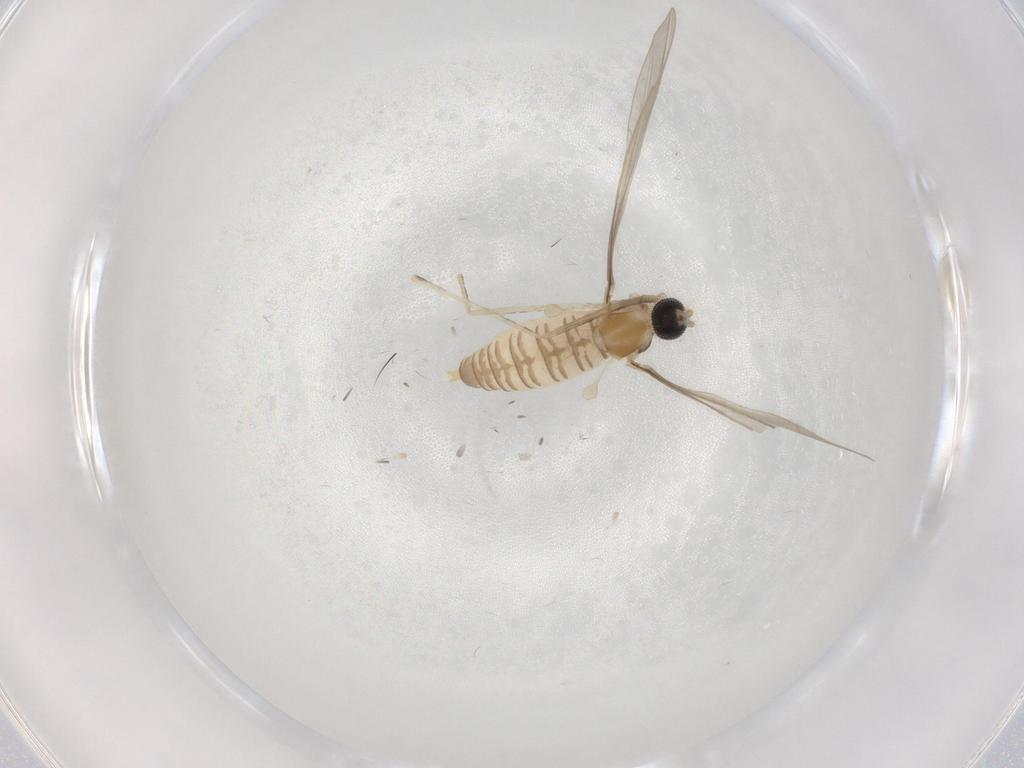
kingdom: Animalia
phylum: Arthropoda
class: Insecta
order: Diptera
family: Cecidomyiidae
